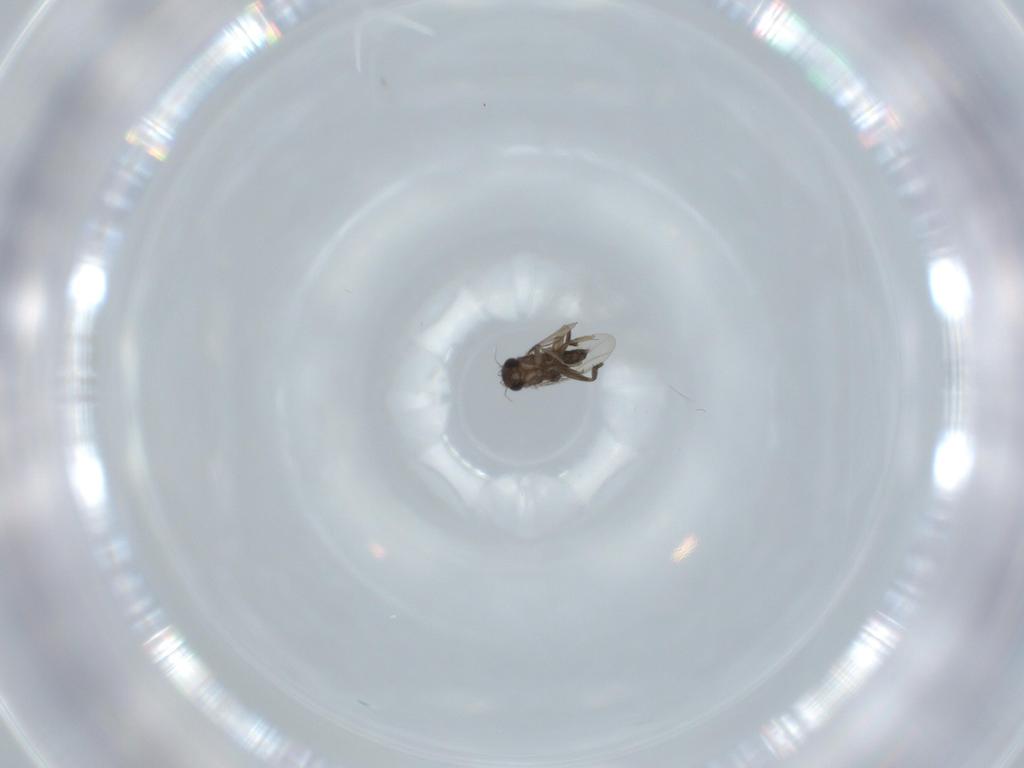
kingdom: Animalia
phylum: Arthropoda
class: Insecta
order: Diptera
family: Phoridae
